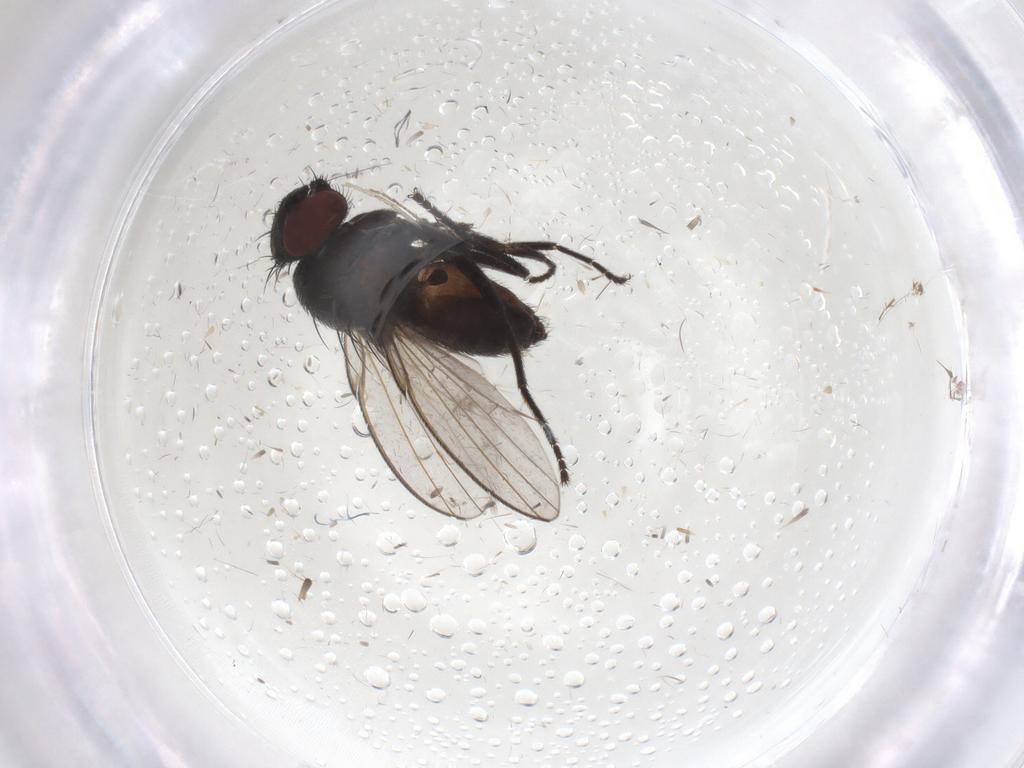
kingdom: Animalia
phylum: Arthropoda
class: Insecta
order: Diptera
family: Milichiidae
